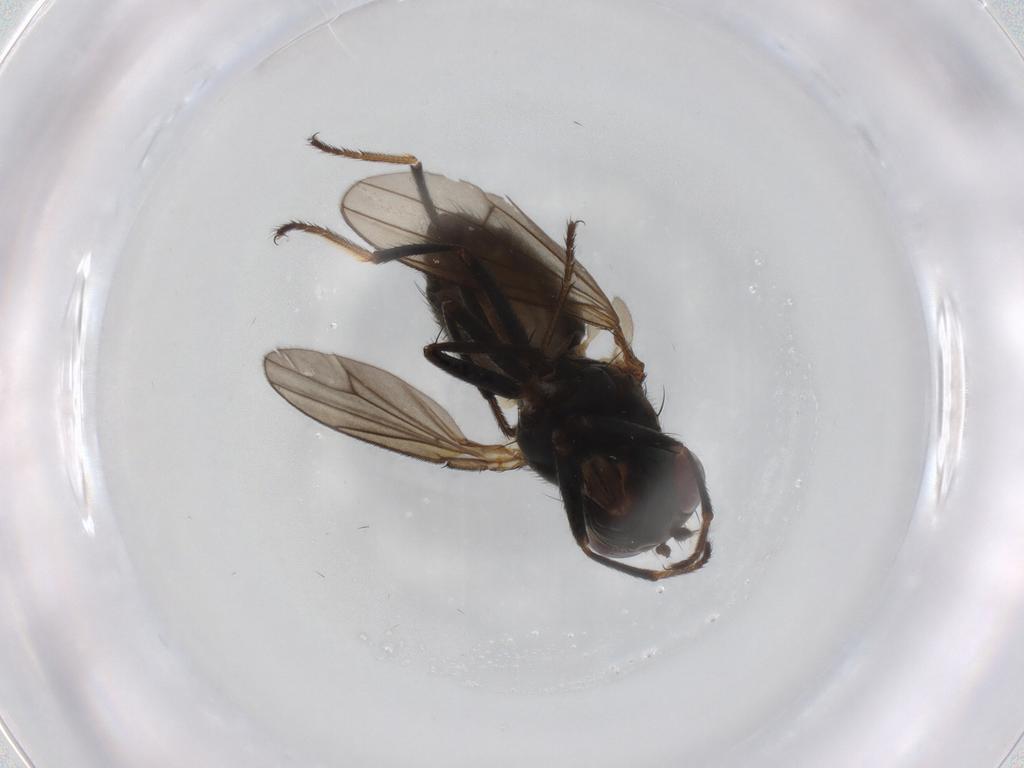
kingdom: Animalia
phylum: Arthropoda
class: Insecta
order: Diptera
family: Ephydridae
